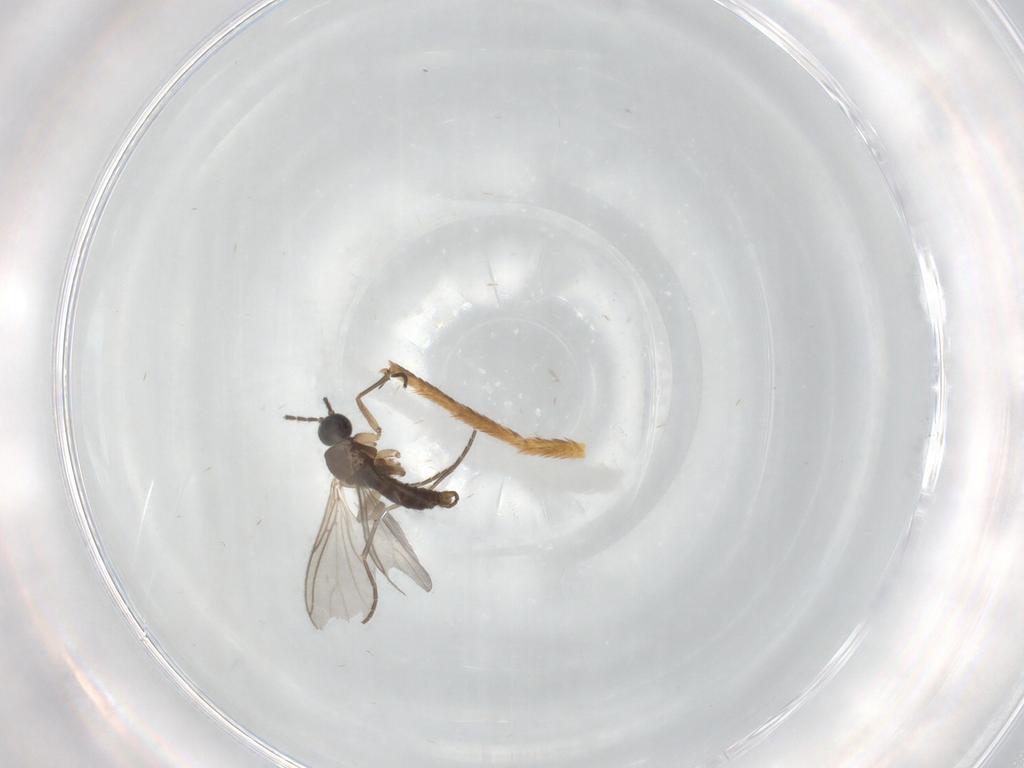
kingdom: Animalia
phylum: Arthropoda
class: Insecta
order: Diptera
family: Sciaridae
